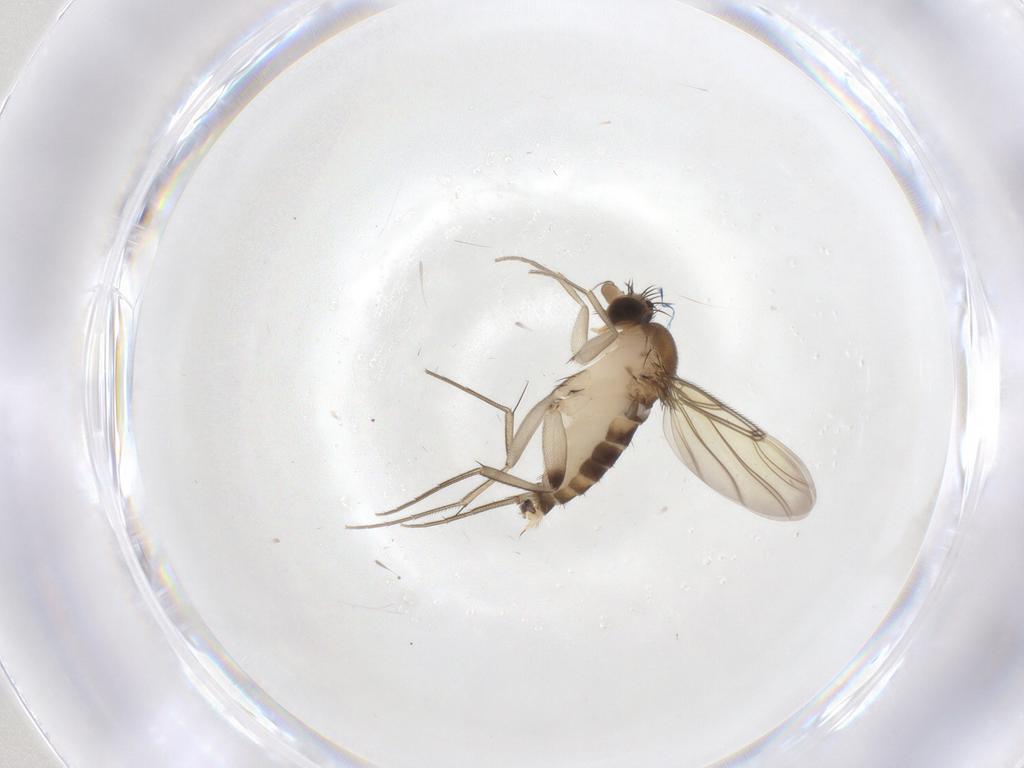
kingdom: Animalia
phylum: Arthropoda
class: Insecta
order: Diptera
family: Phoridae
